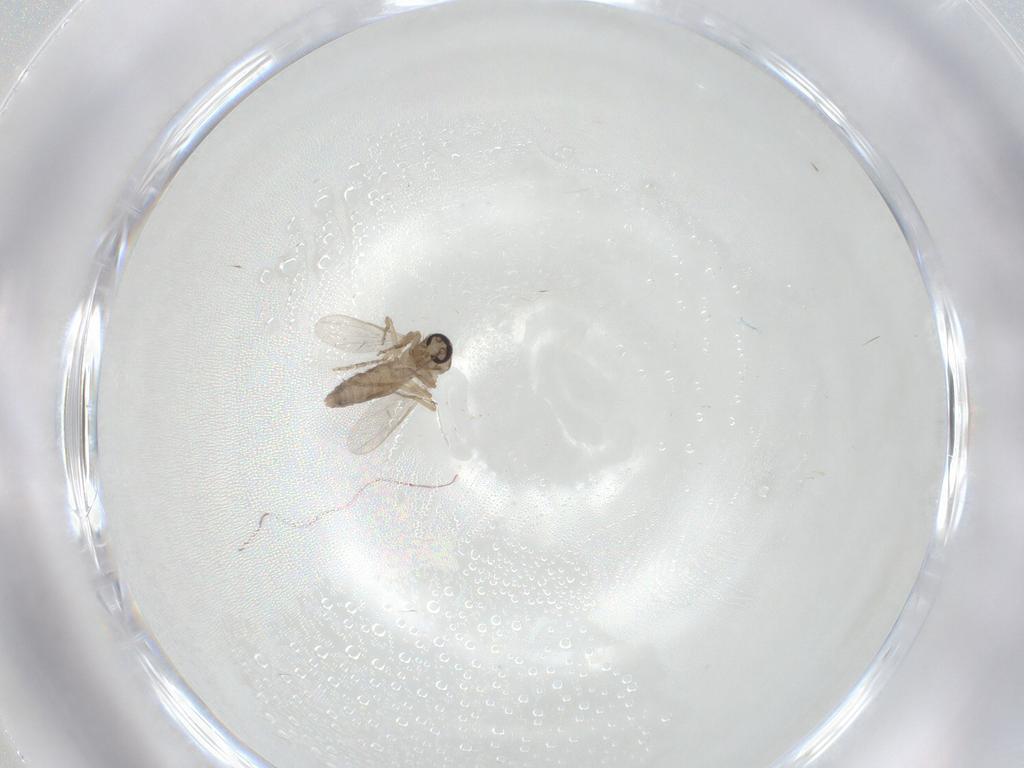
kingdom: Animalia
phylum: Arthropoda
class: Insecta
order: Diptera
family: Ceratopogonidae
